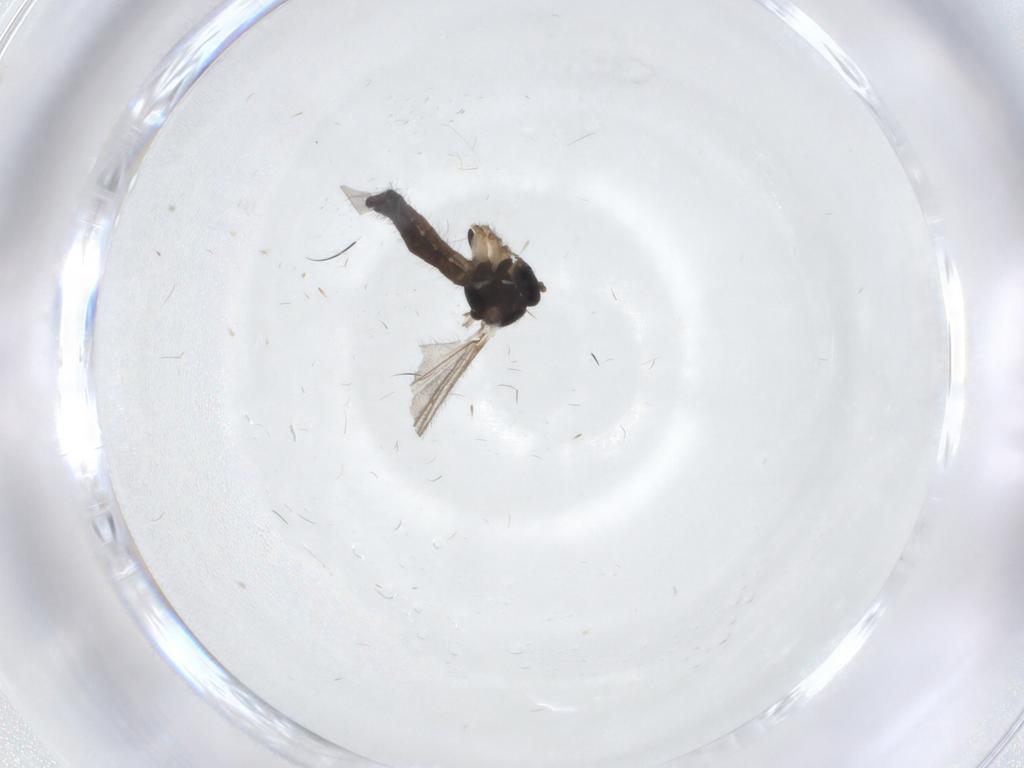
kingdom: Animalia
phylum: Arthropoda
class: Insecta
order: Diptera
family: Mycetophilidae
